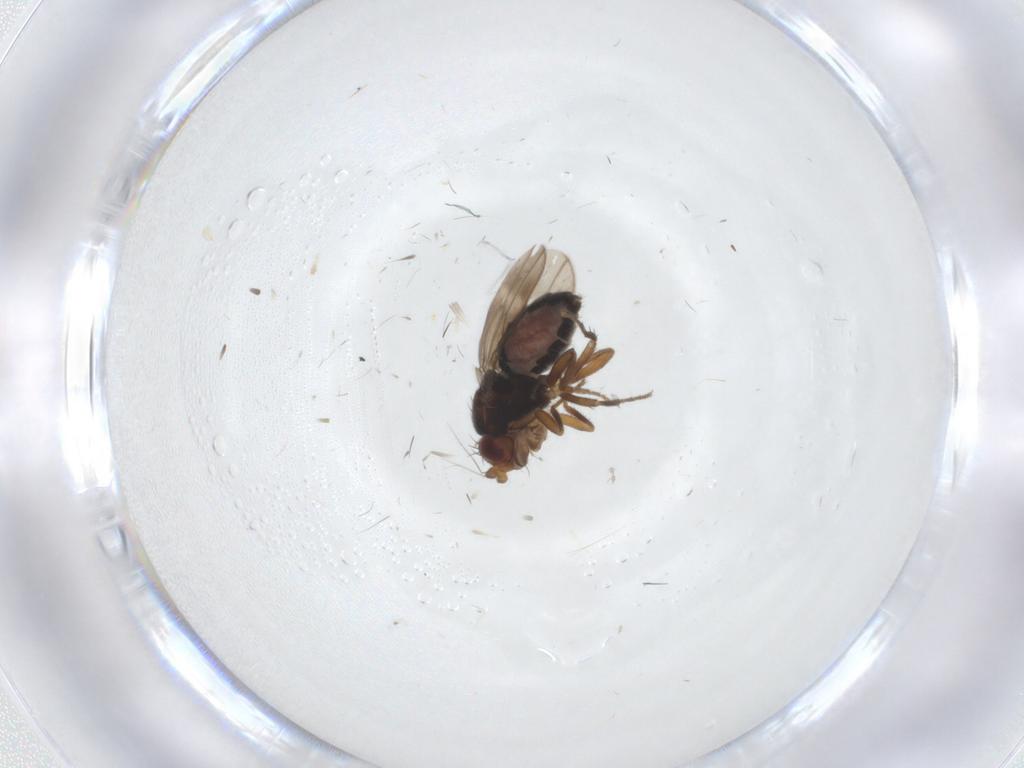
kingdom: Animalia
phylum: Arthropoda
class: Insecta
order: Diptera
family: Sphaeroceridae
